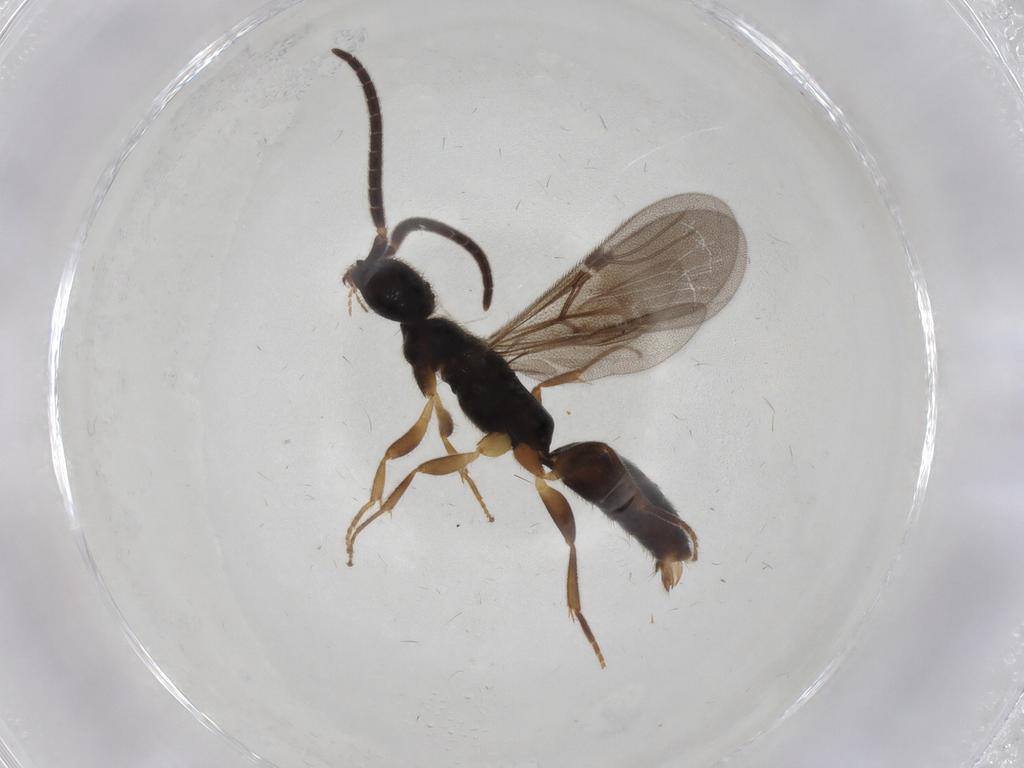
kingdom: Animalia
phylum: Arthropoda
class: Insecta
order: Hymenoptera
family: Bethylidae
